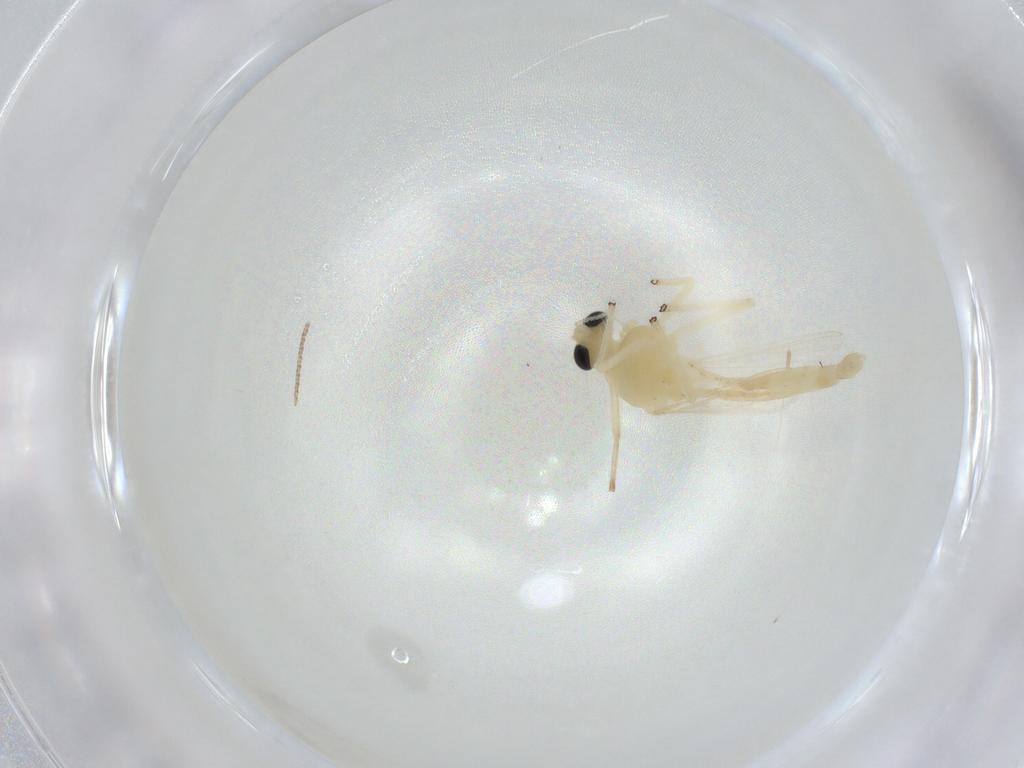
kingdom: Animalia
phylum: Arthropoda
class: Insecta
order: Diptera
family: Chironomidae
